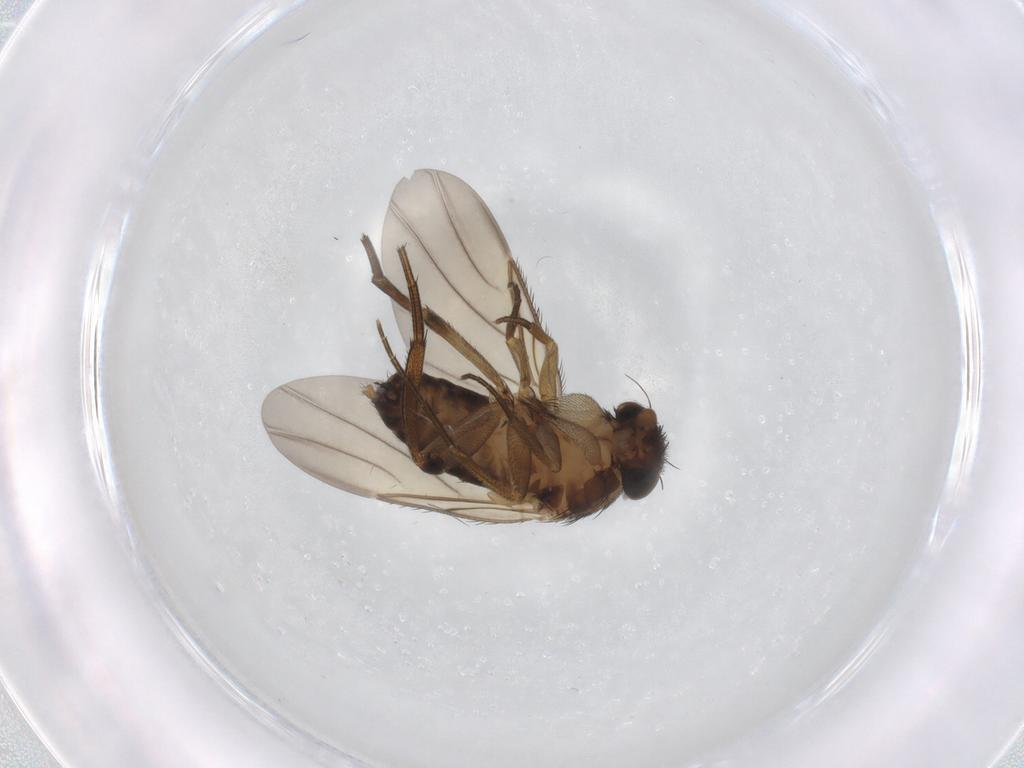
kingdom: Animalia
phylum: Arthropoda
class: Insecta
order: Diptera
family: Phoridae
